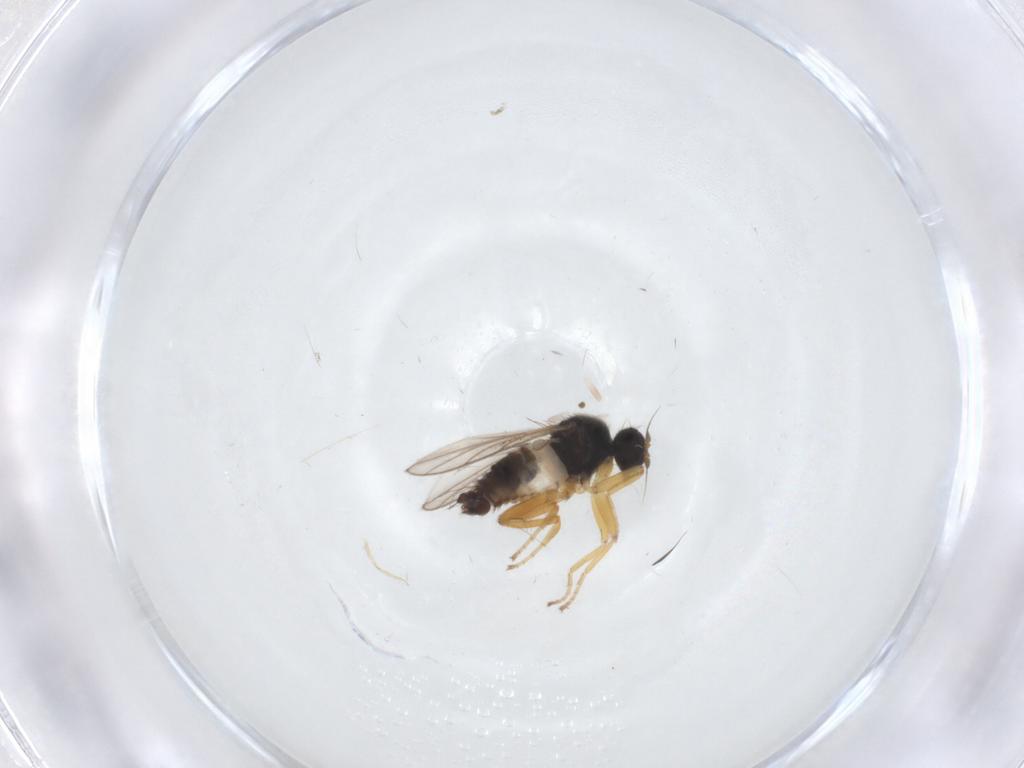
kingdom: Animalia
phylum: Arthropoda
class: Insecta
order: Diptera
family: Hybotidae
